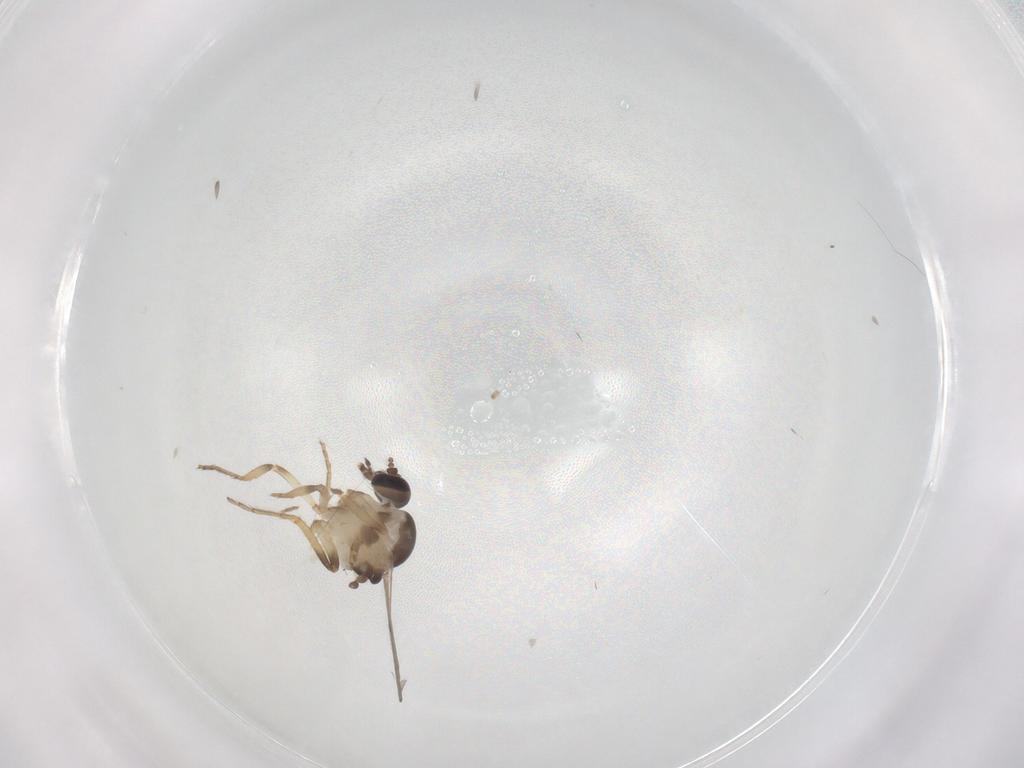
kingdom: Animalia
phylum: Arthropoda
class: Insecta
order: Diptera
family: Ceratopogonidae
